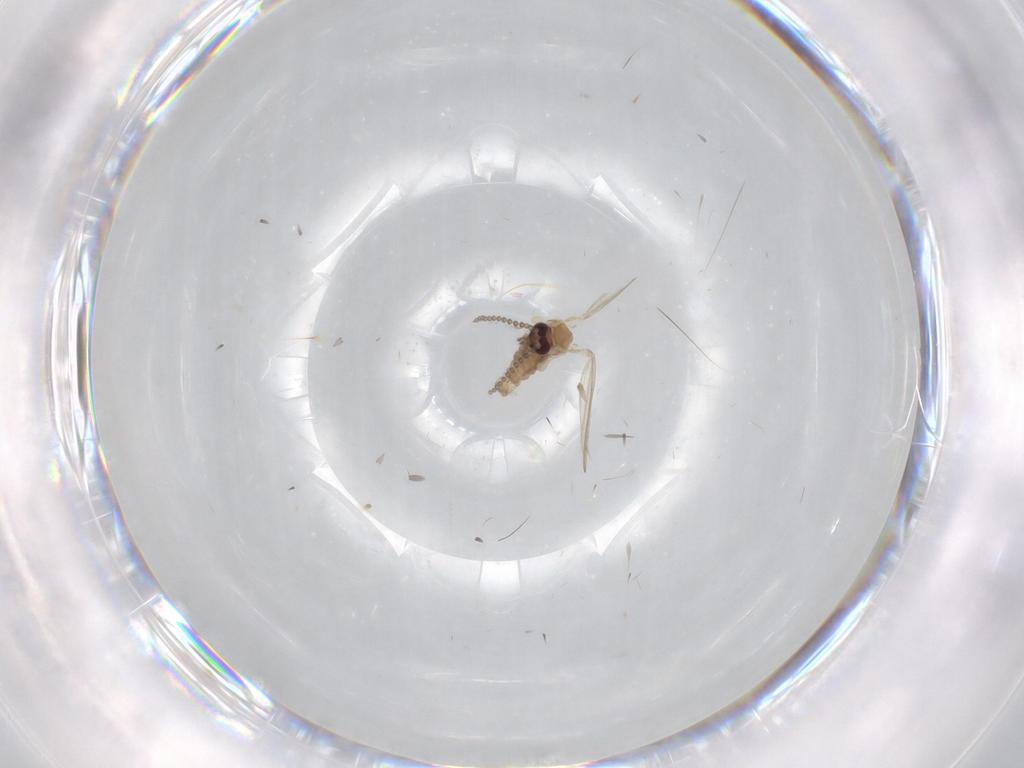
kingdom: Animalia
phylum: Arthropoda
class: Insecta
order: Diptera
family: Psychodidae
